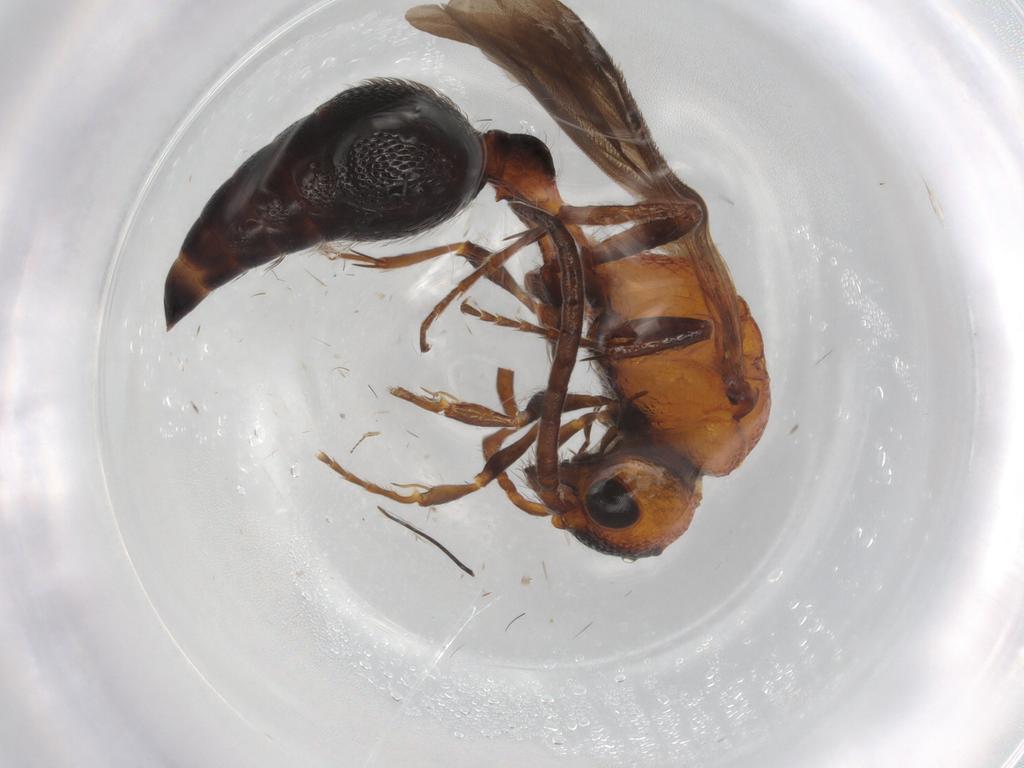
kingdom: Animalia
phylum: Arthropoda
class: Insecta
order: Hymenoptera
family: Mutillidae
